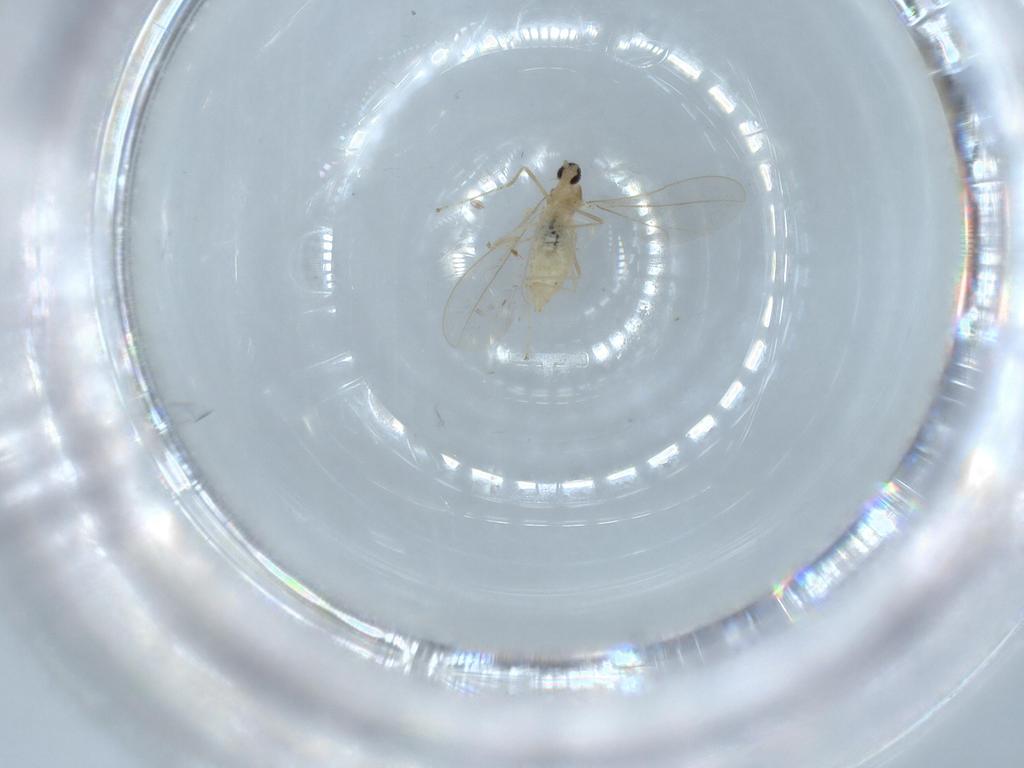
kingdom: Animalia
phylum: Arthropoda
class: Insecta
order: Diptera
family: Cecidomyiidae
